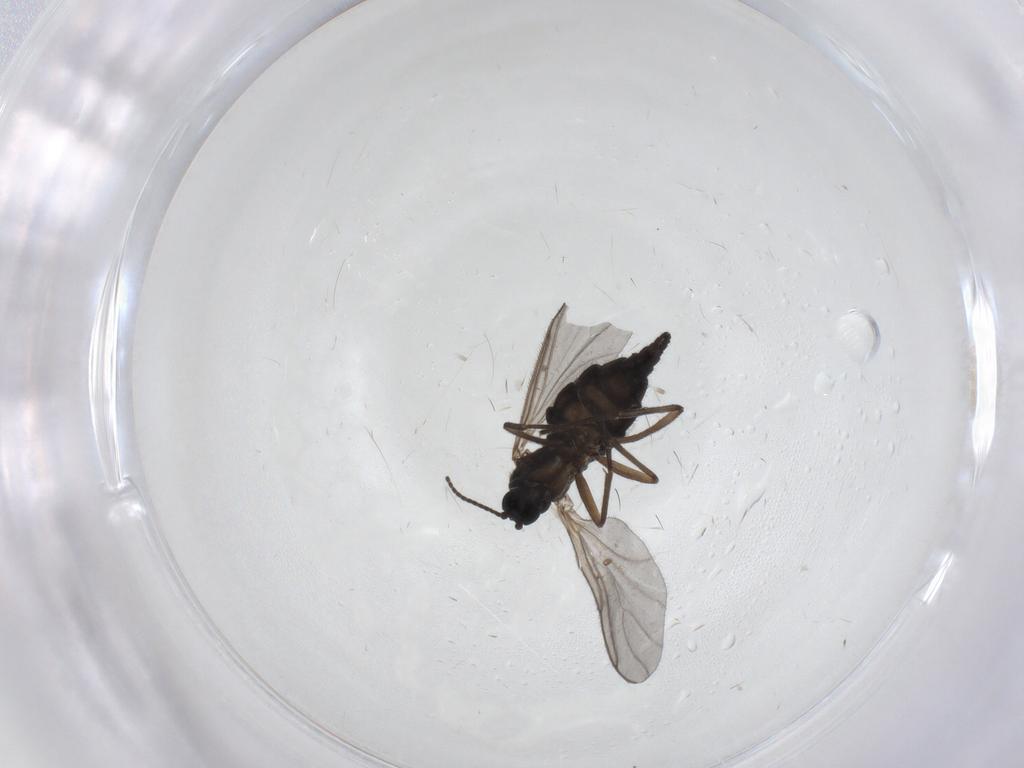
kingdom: Animalia
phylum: Arthropoda
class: Insecta
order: Diptera
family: Sciaridae
